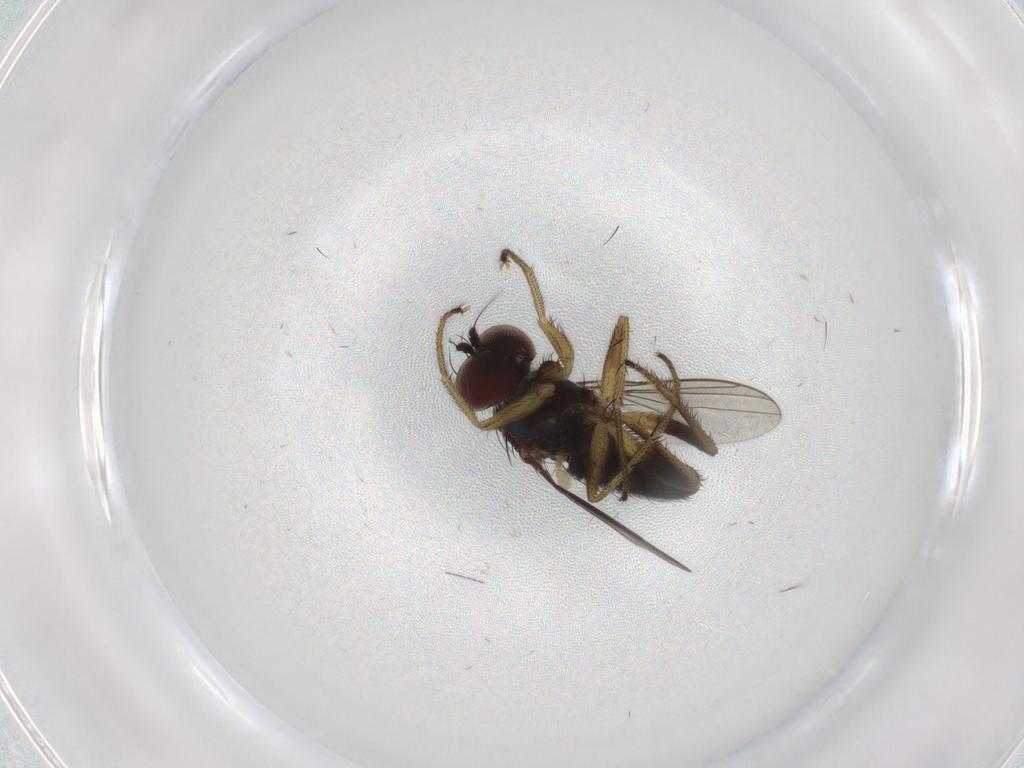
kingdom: Animalia
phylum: Arthropoda
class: Insecta
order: Diptera
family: Dolichopodidae
